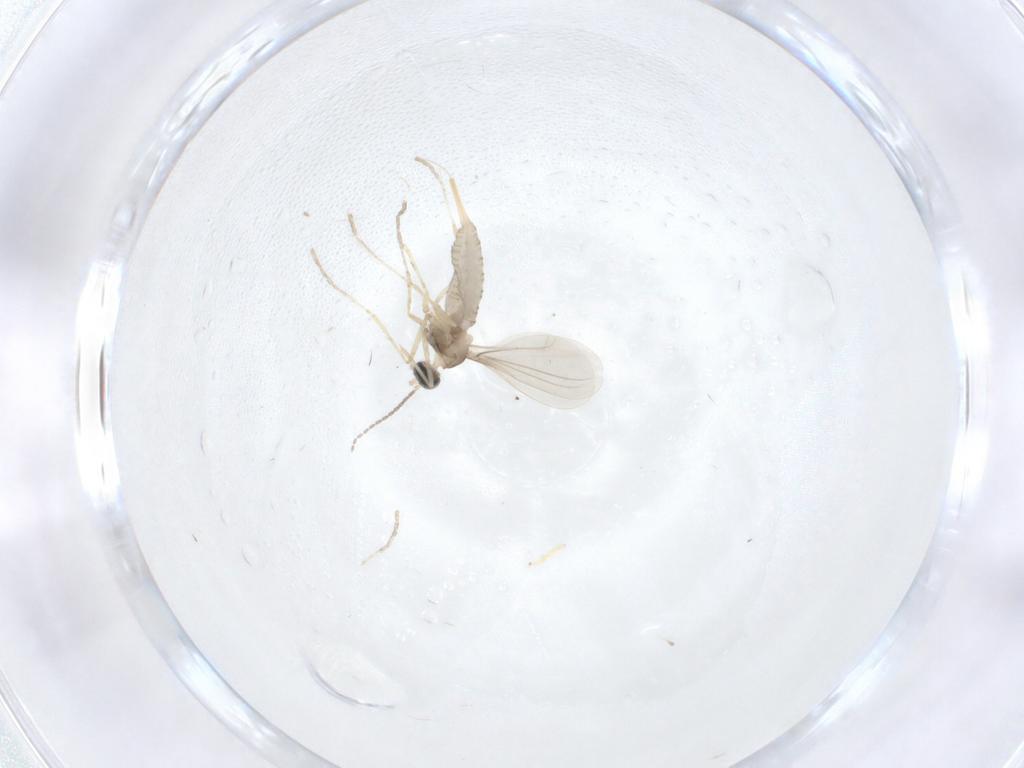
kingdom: Animalia
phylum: Arthropoda
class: Insecta
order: Diptera
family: Cecidomyiidae
